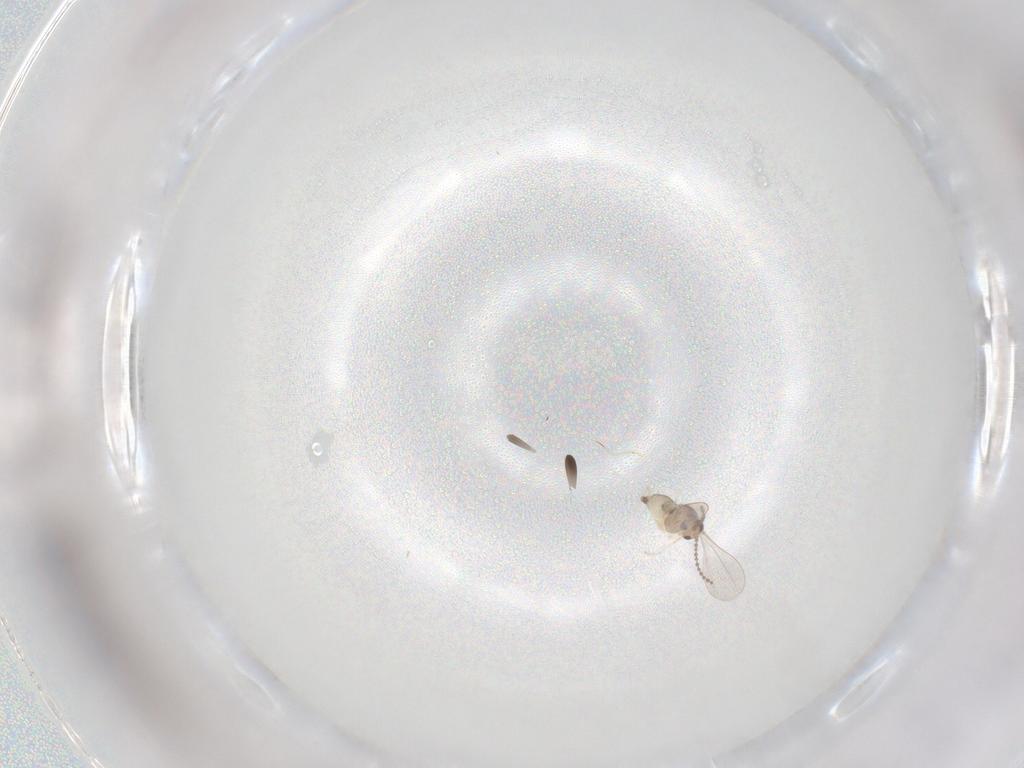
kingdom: Animalia
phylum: Arthropoda
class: Insecta
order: Diptera
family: Cecidomyiidae
